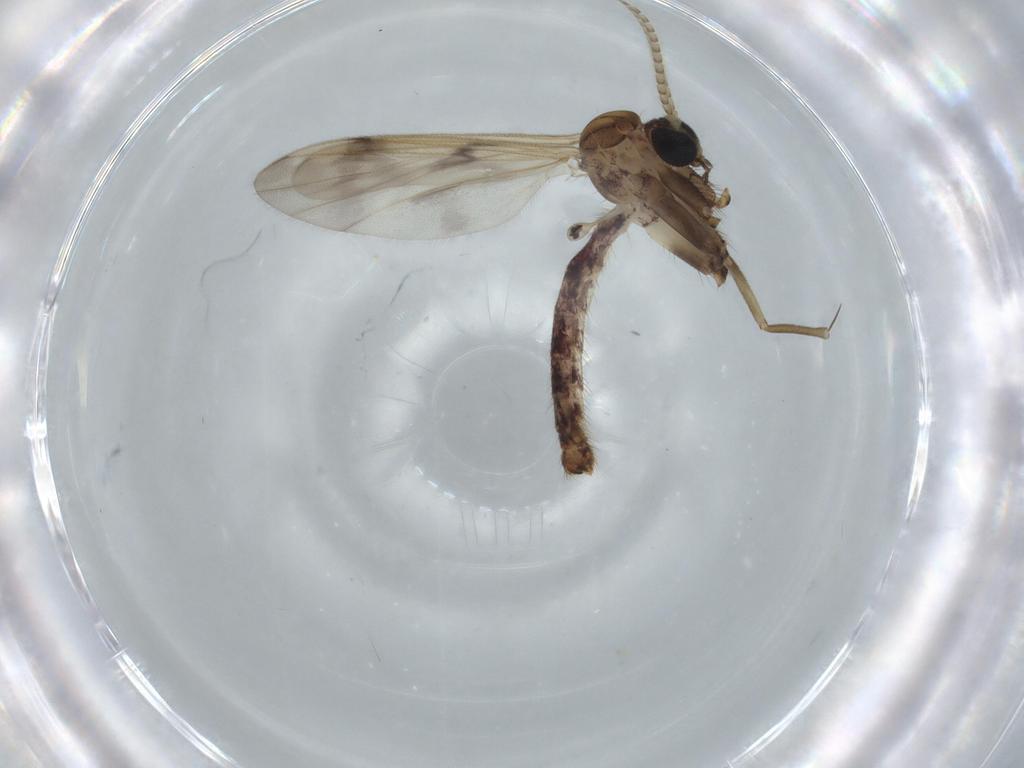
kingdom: Animalia
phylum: Arthropoda
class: Insecta
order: Diptera
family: Mycetophilidae
